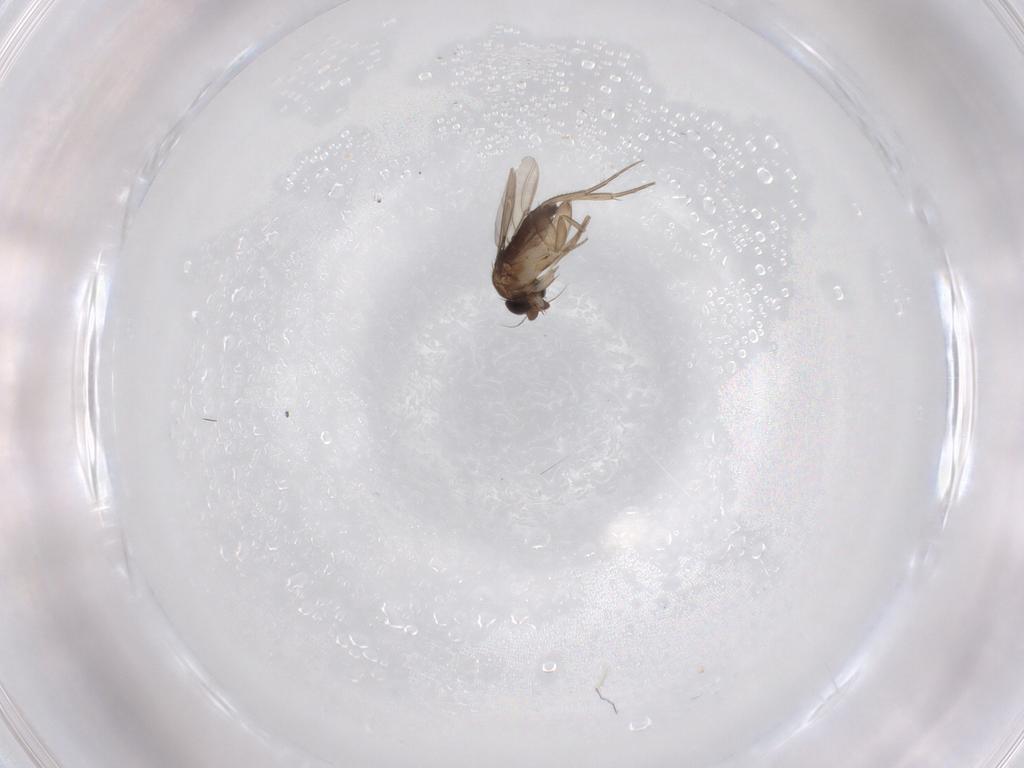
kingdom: Animalia
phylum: Arthropoda
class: Insecta
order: Diptera
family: Phoridae
